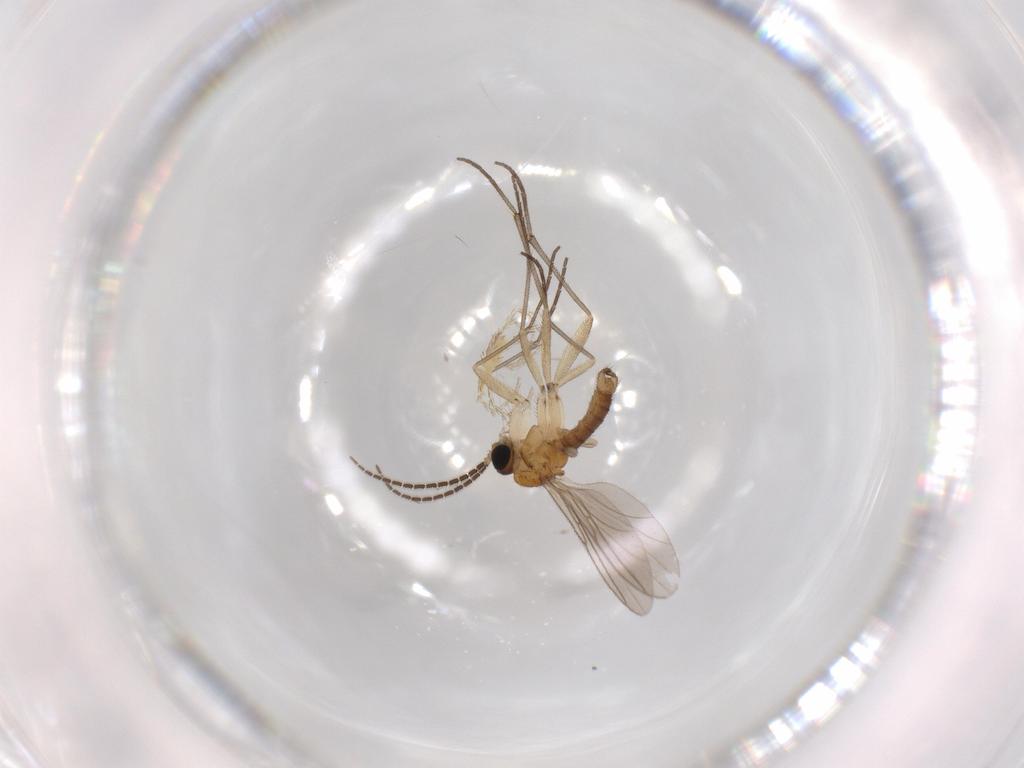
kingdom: Animalia
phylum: Arthropoda
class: Insecta
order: Diptera
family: Sciaridae
